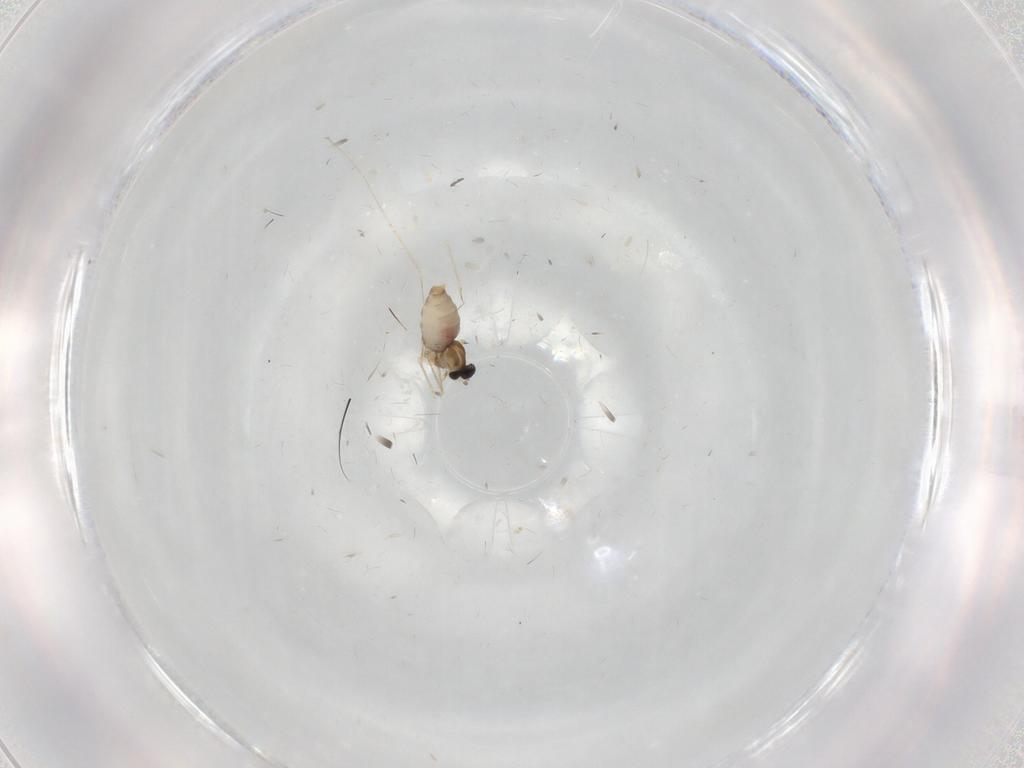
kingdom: Animalia
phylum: Arthropoda
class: Insecta
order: Diptera
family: Cecidomyiidae
